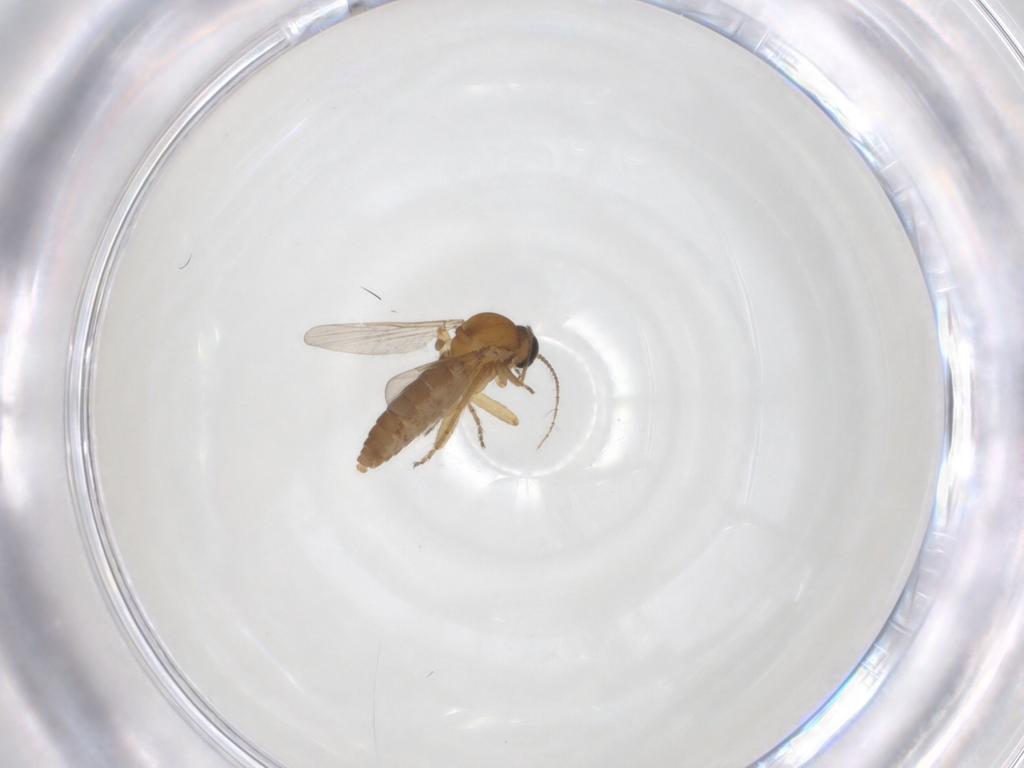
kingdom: Animalia
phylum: Arthropoda
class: Insecta
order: Diptera
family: Ceratopogonidae
